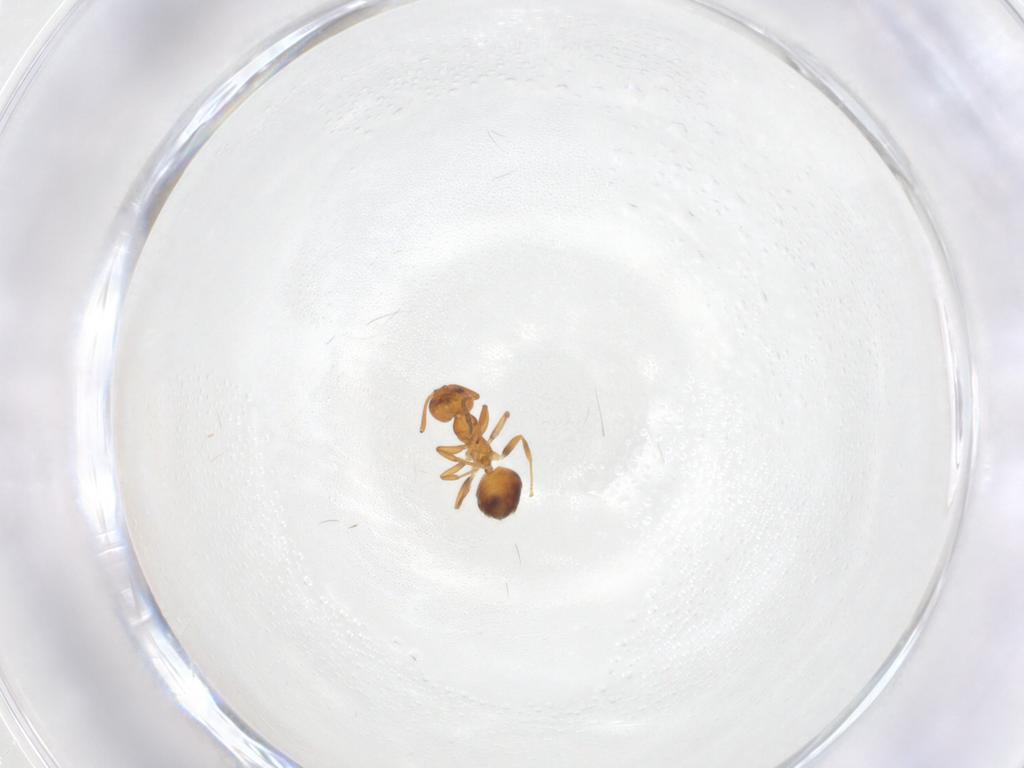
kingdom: Animalia
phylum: Arthropoda
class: Insecta
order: Hymenoptera
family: Formicidae
